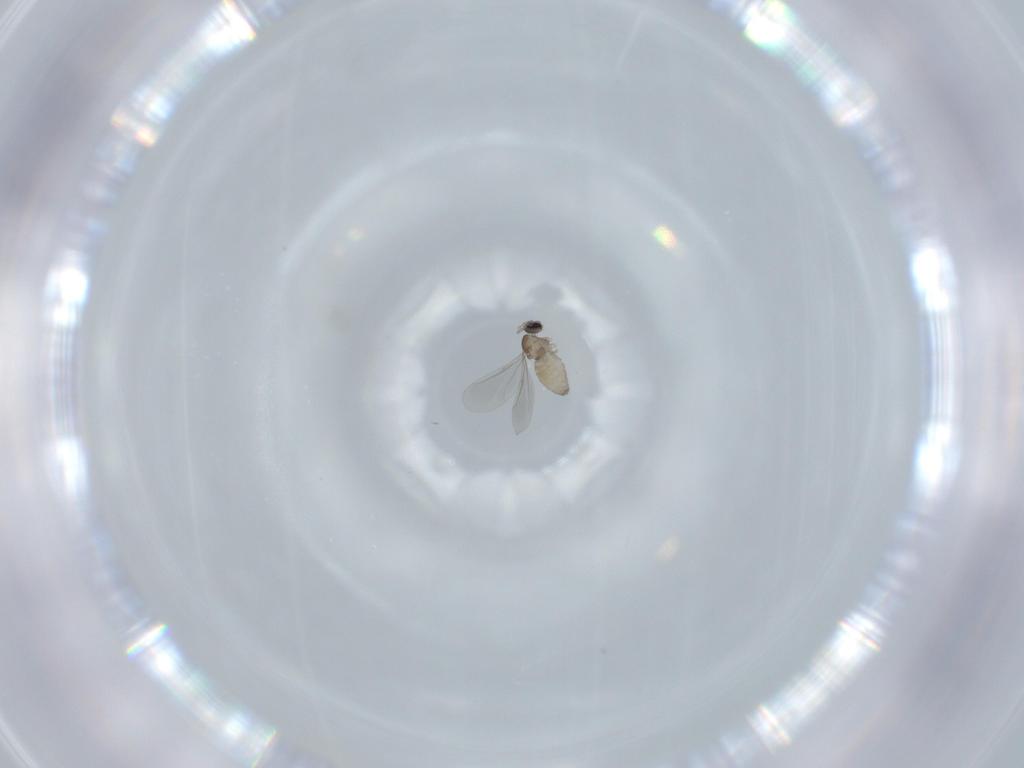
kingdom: Animalia
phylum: Arthropoda
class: Insecta
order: Diptera
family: Cecidomyiidae
